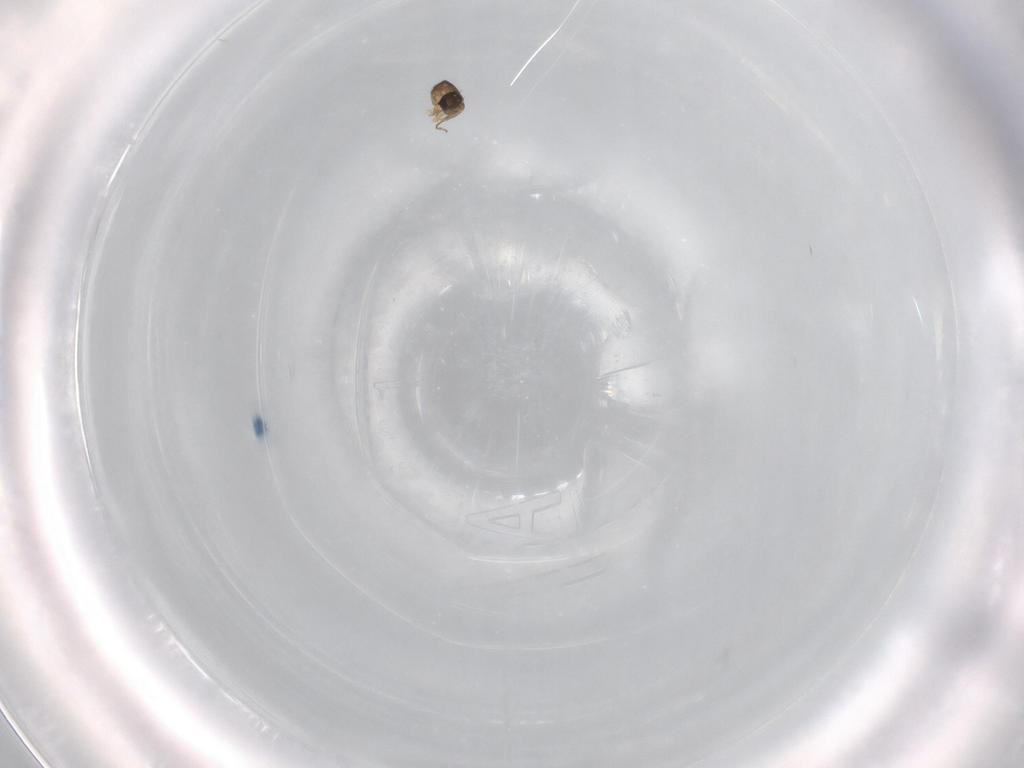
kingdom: Animalia
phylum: Arthropoda
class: Insecta
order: Diptera
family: Phoridae
